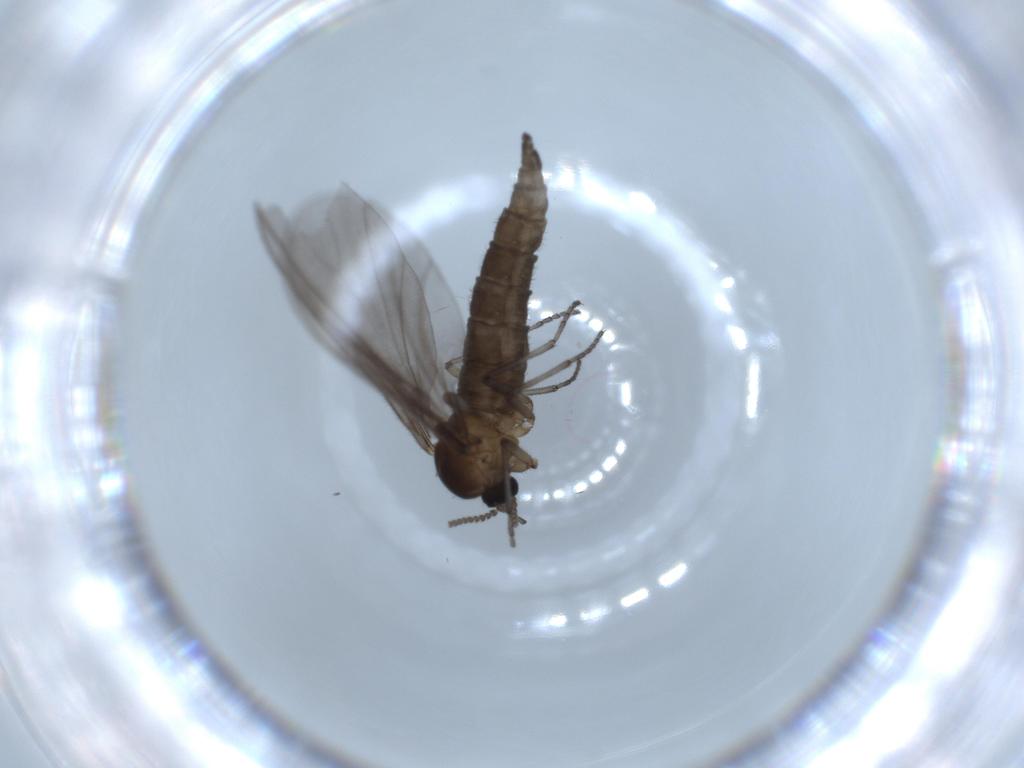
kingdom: Animalia
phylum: Arthropoda
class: Insecta
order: Diptera
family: Sciaridae
